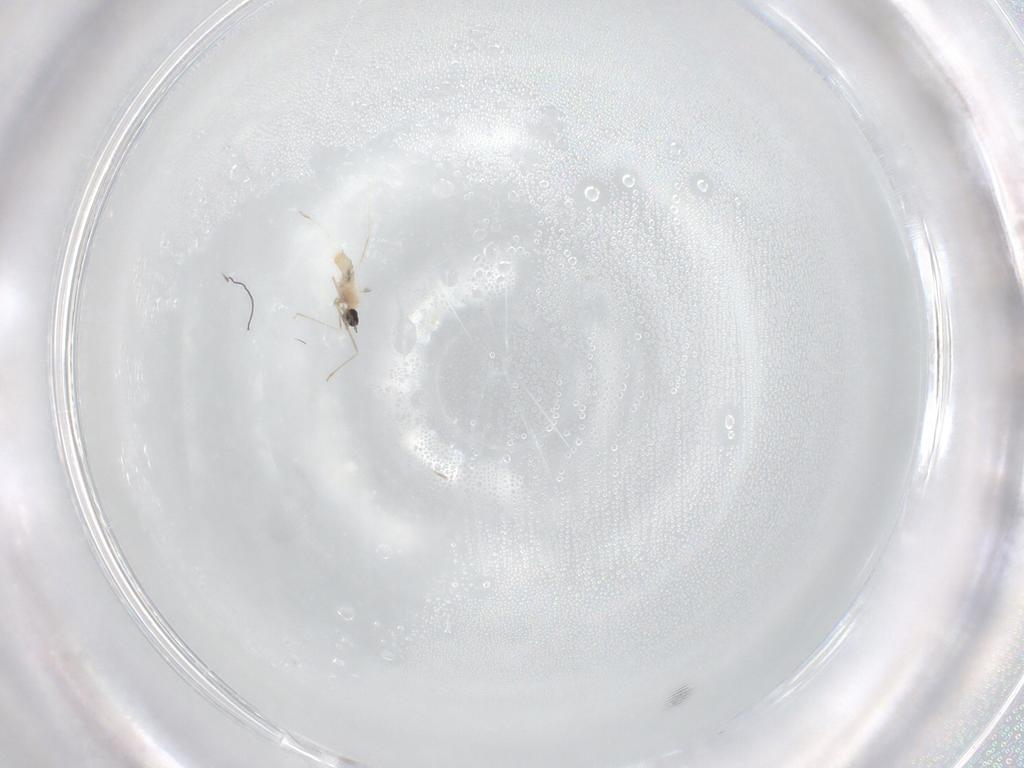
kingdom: Animalia
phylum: Arthropoda
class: Insecta
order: Diptera
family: Cecidomyiidae
